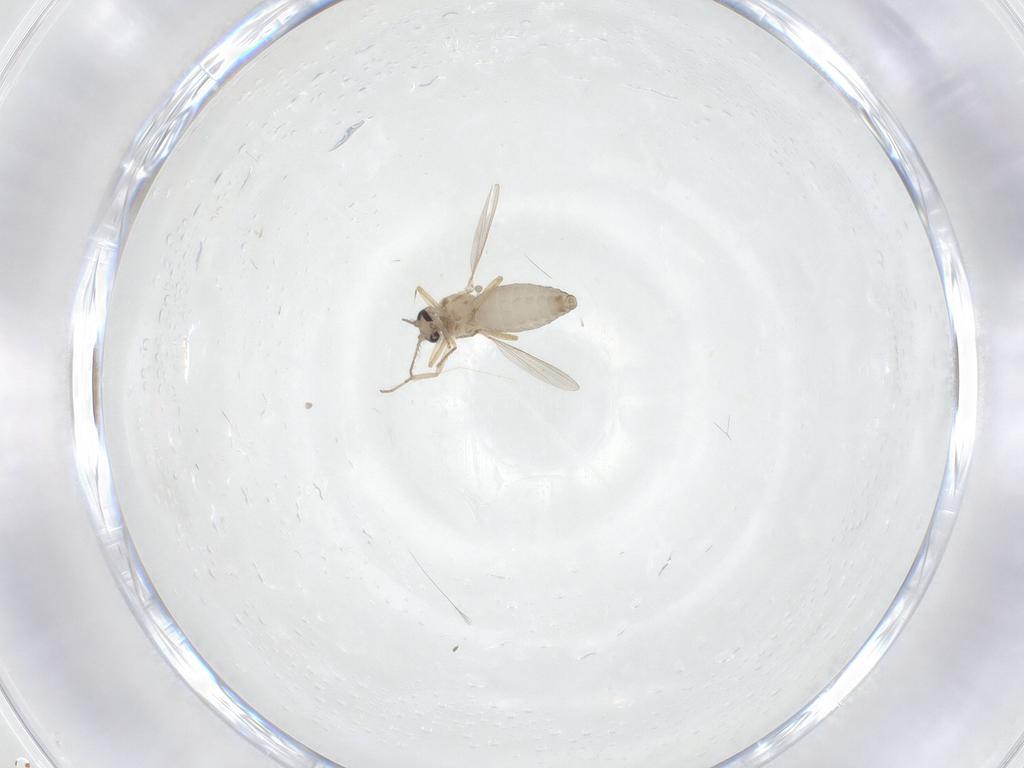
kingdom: Animalia
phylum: Arthropoda
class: Insecta
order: Diptera
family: Ceratopogonidae
